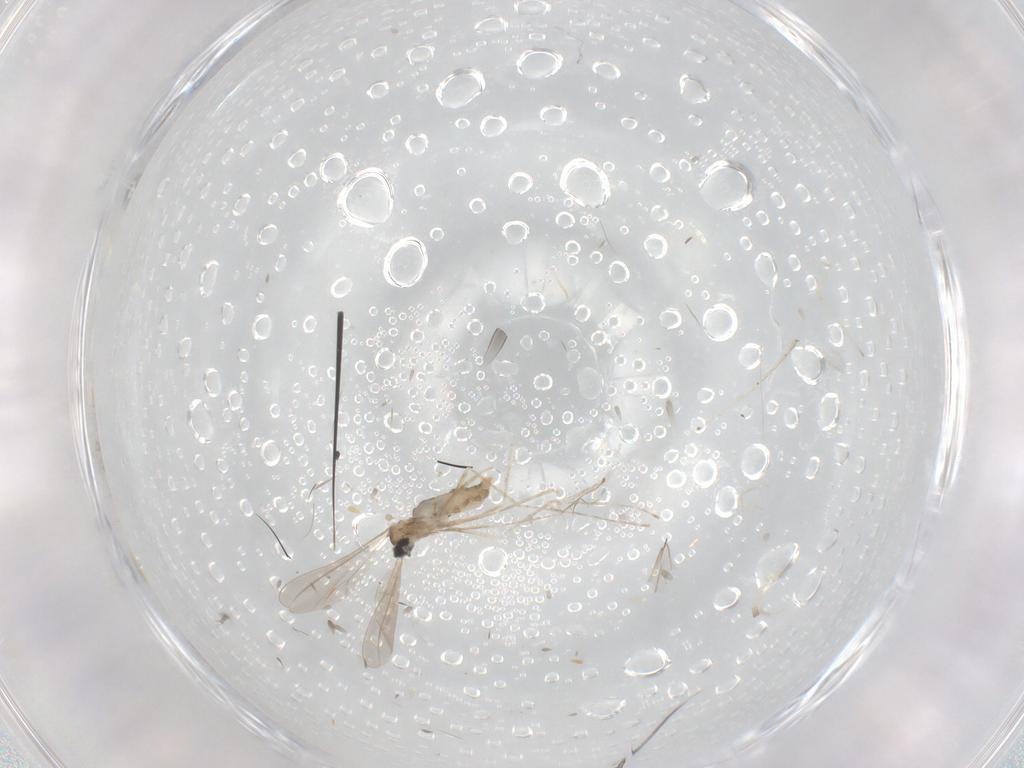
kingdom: Animalia
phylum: Arthropoda
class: Insecta
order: Diptera
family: Cecidomyiidae
